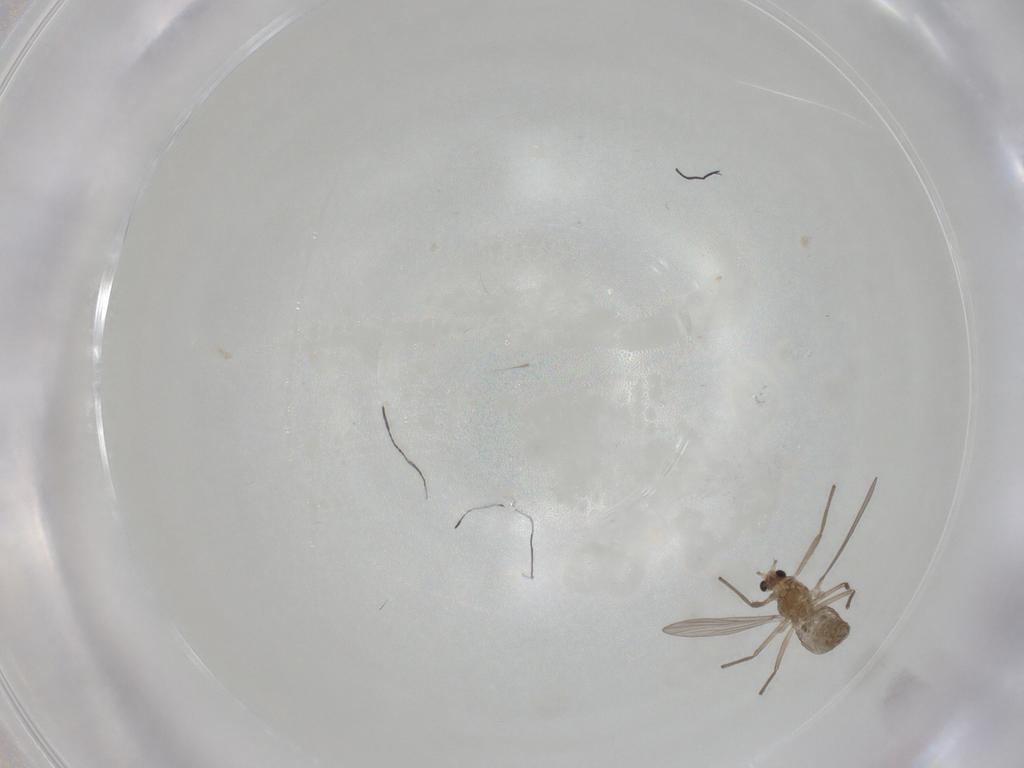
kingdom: Animalia
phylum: Arthropoda
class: Insecta
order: Diptera
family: Chironomidae
